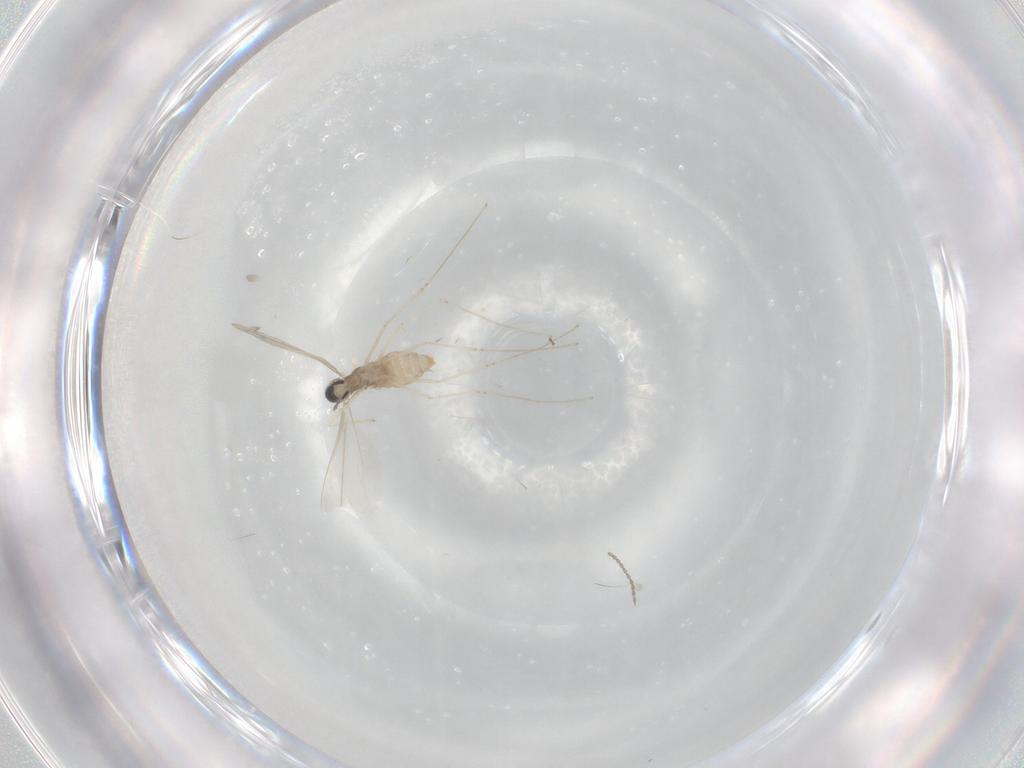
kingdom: Animalia
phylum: Arthropoda
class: Insecta
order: Diptera
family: Cecidomyiidae
